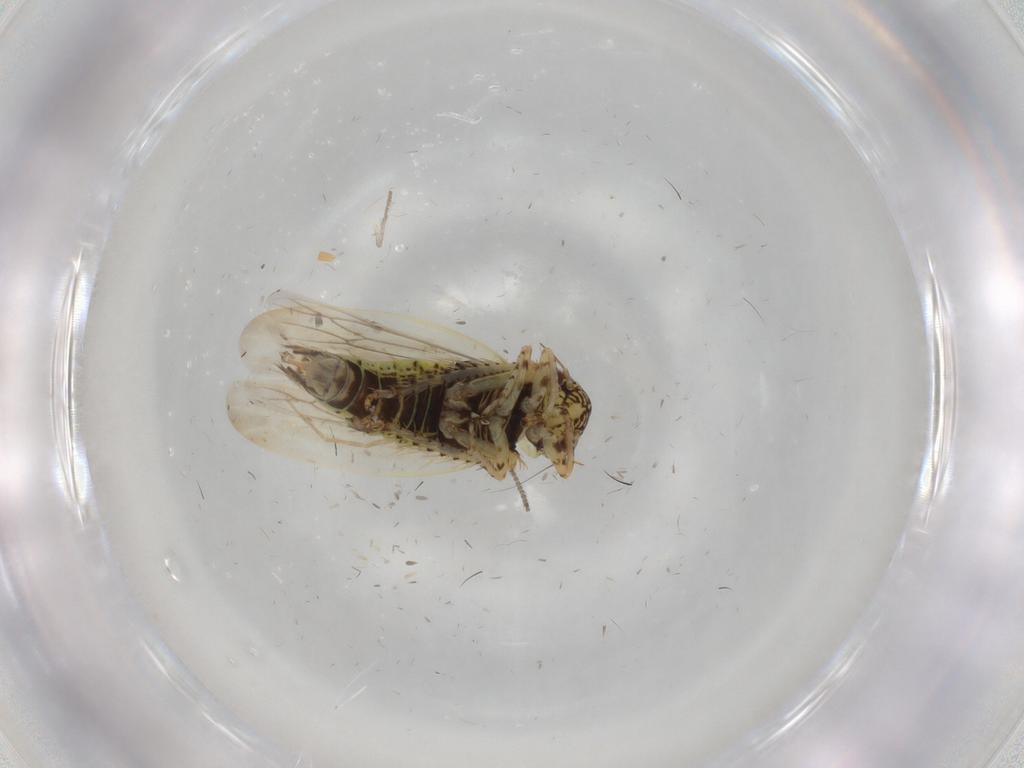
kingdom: Animalia
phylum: Arthropoda
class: Insecta
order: Hemiptera
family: Cicadellidae
